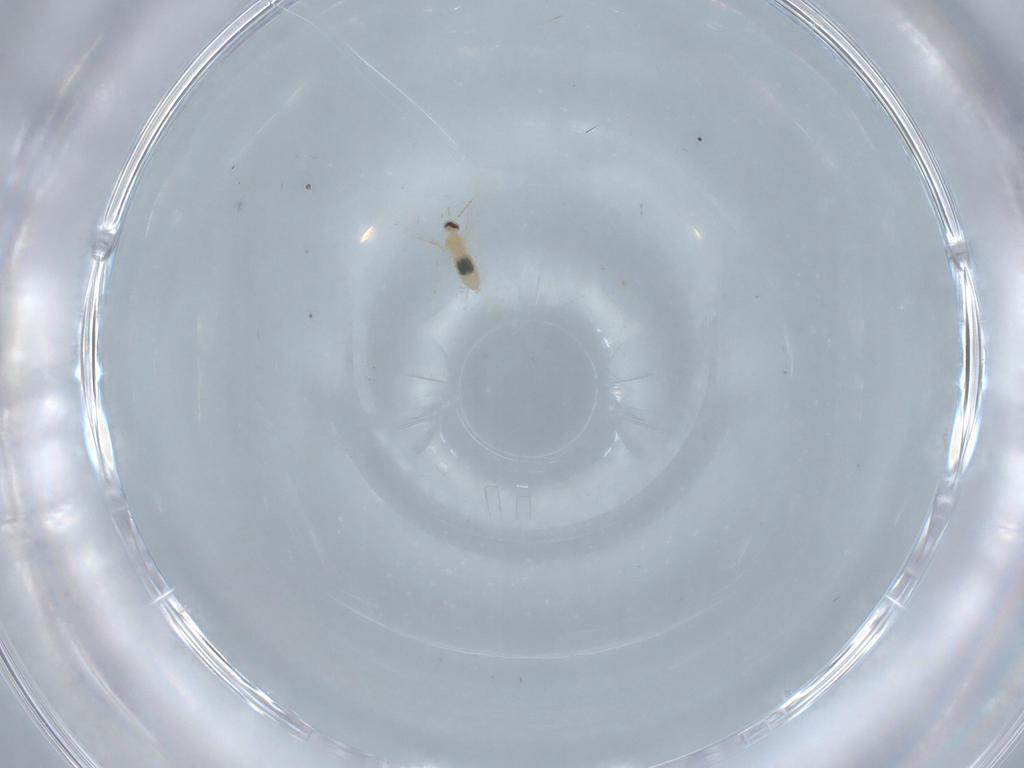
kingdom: Animalia
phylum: Arthropoda
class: Insecta
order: Diptera
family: Cecidomyiidae
